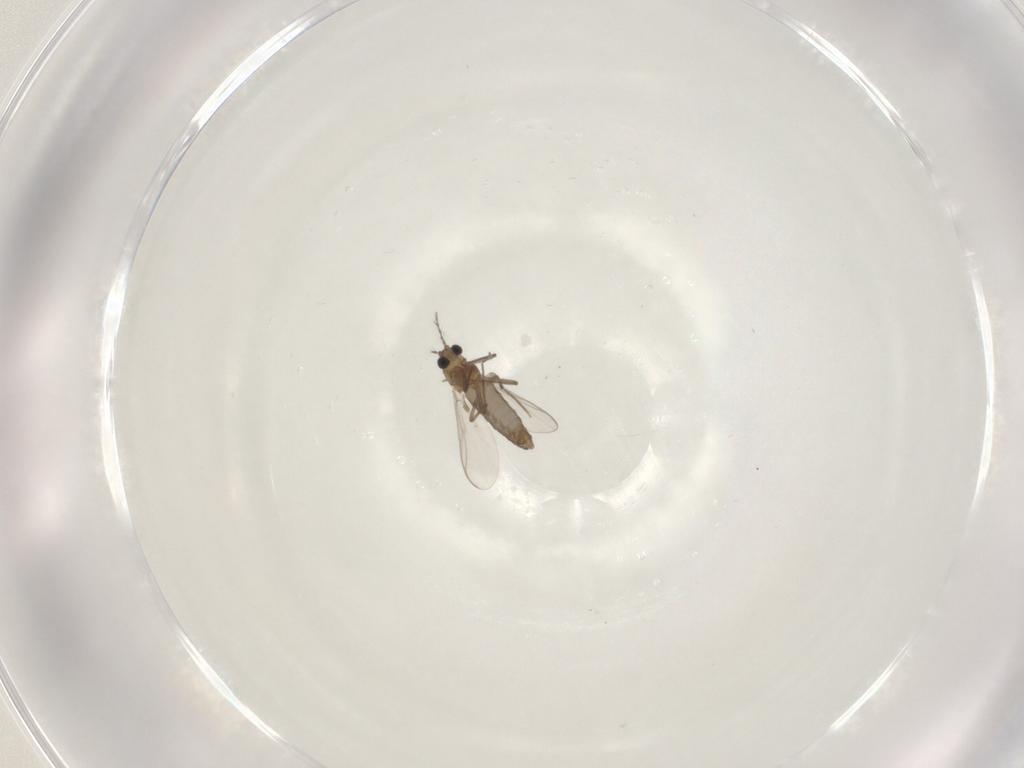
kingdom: Animalia
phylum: Arthropoda
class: Insecta
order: Diptera
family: Chironomidae
